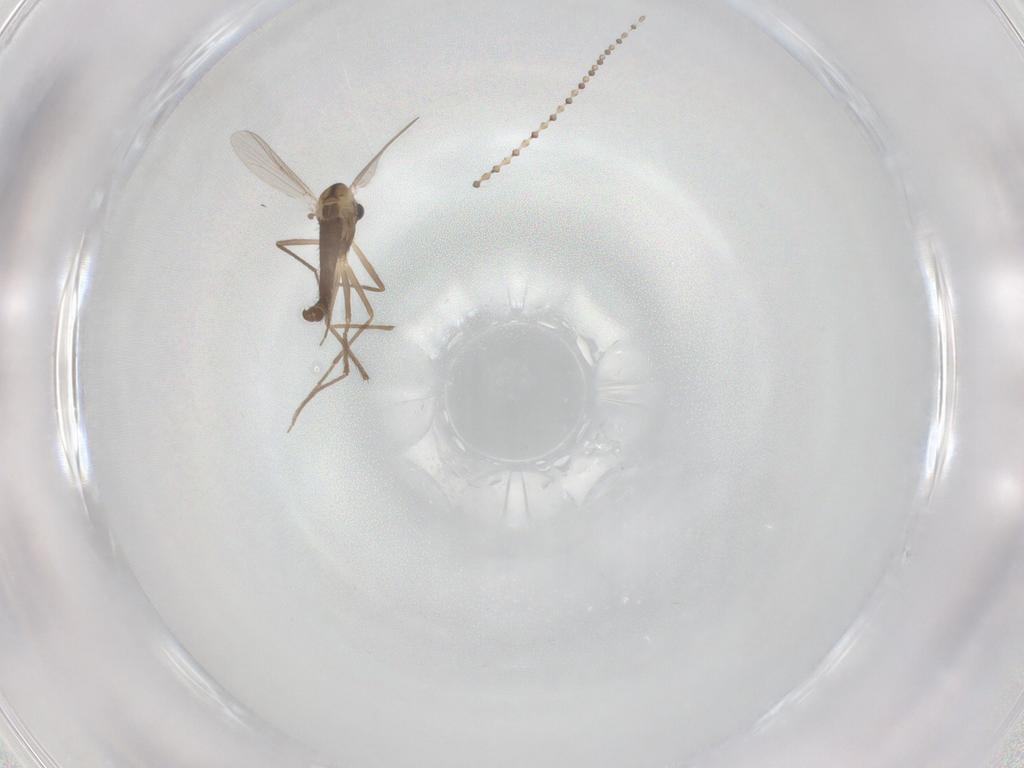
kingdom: Animalia
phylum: Arthropoda
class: Insecta
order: Diptera
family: Chironomidae
